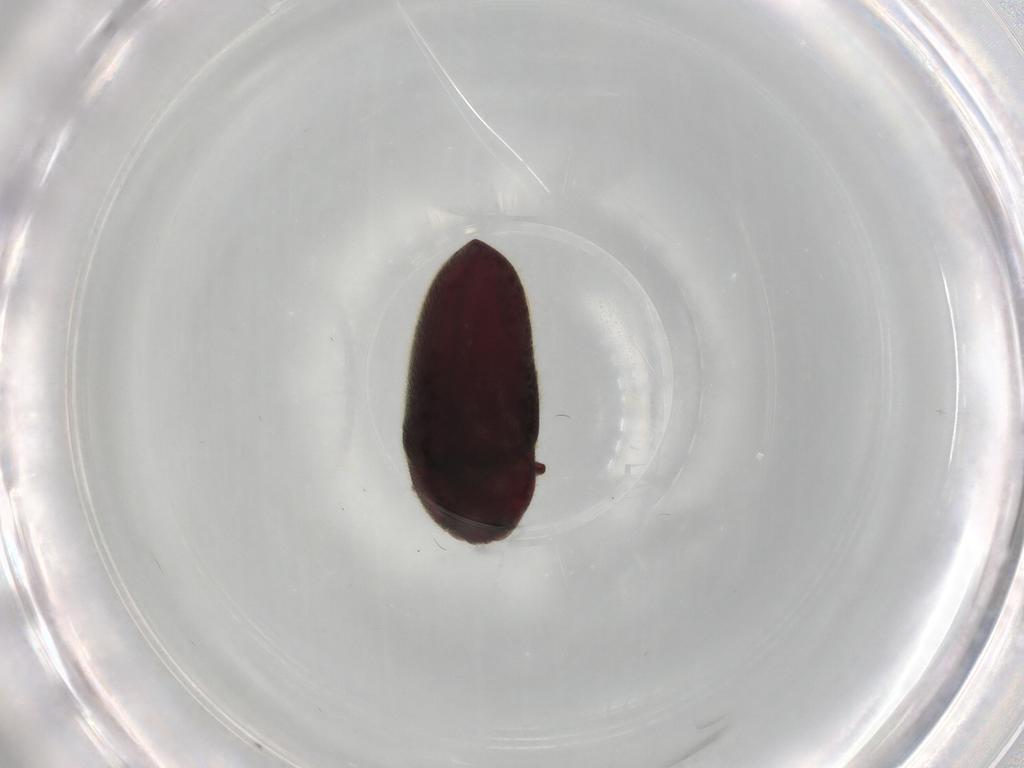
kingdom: Animalia
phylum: Arthropoda
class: Insecta
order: Coleoptera
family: Throscidae
